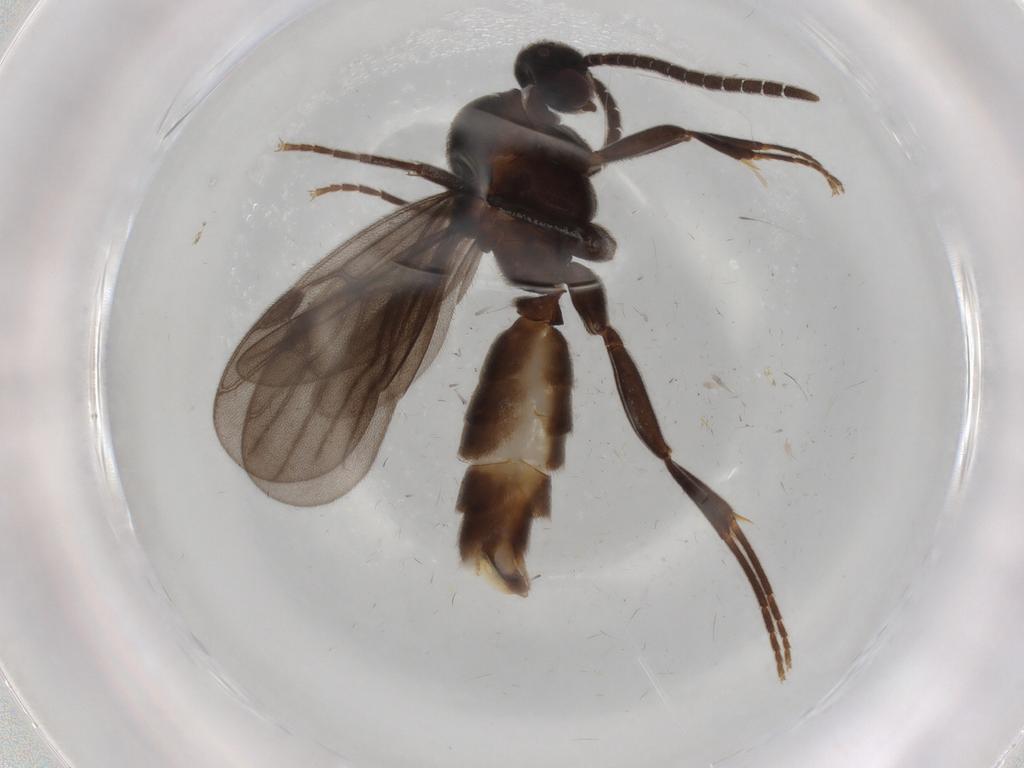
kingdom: Animalia
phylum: Arthropoda
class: Insecta
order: Hymenoptera
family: Formicidae
